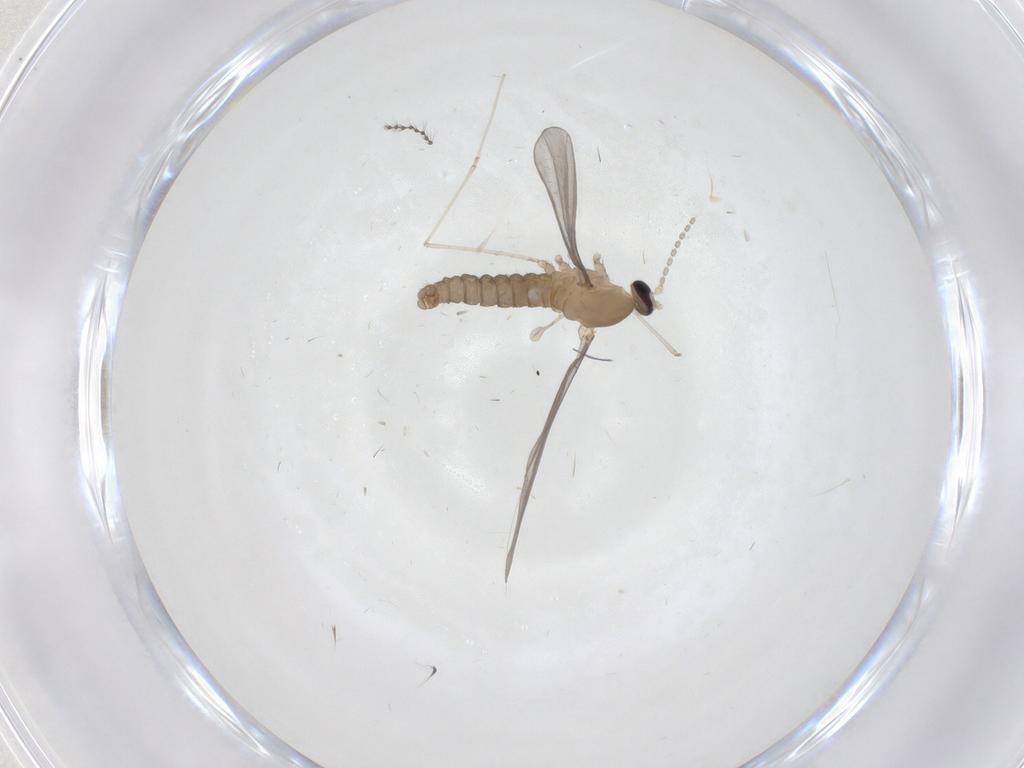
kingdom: Animalia
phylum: Arthropoda
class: Insecta
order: Diptera
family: Cecidomyiidae
